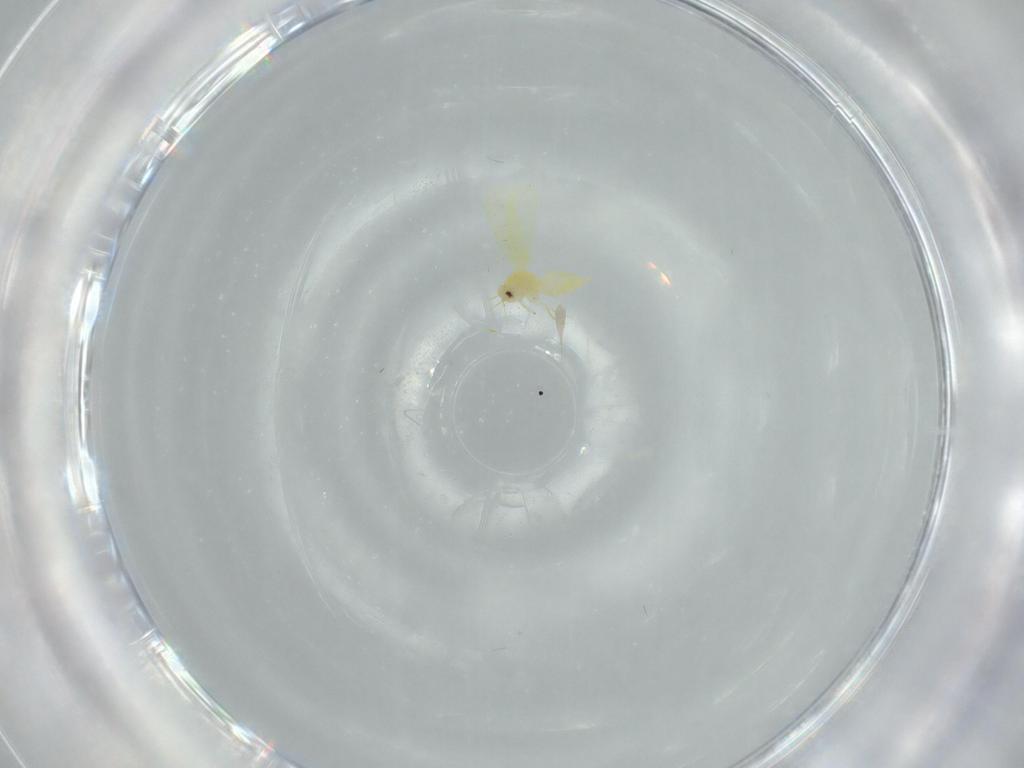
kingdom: Animalia
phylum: Arthropoda
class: Insecta
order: Hemiptera
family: Aleyrodidae
